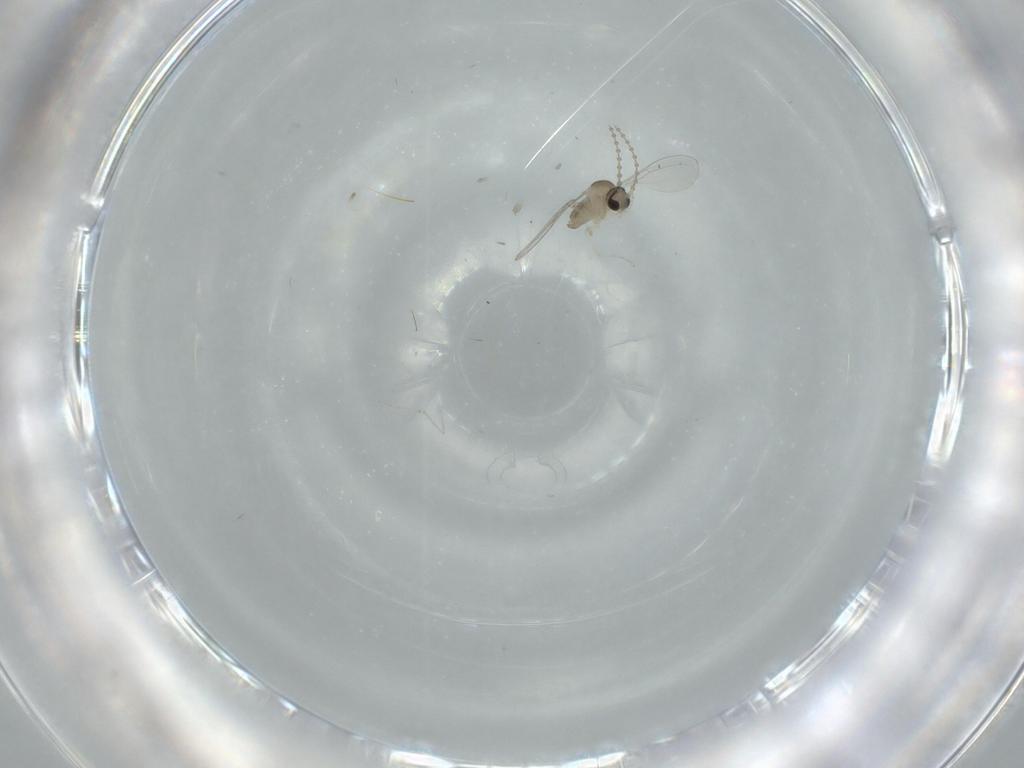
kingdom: Animalia
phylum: Arthropoda
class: Insecta
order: Diptera
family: Cecidomyiidae
